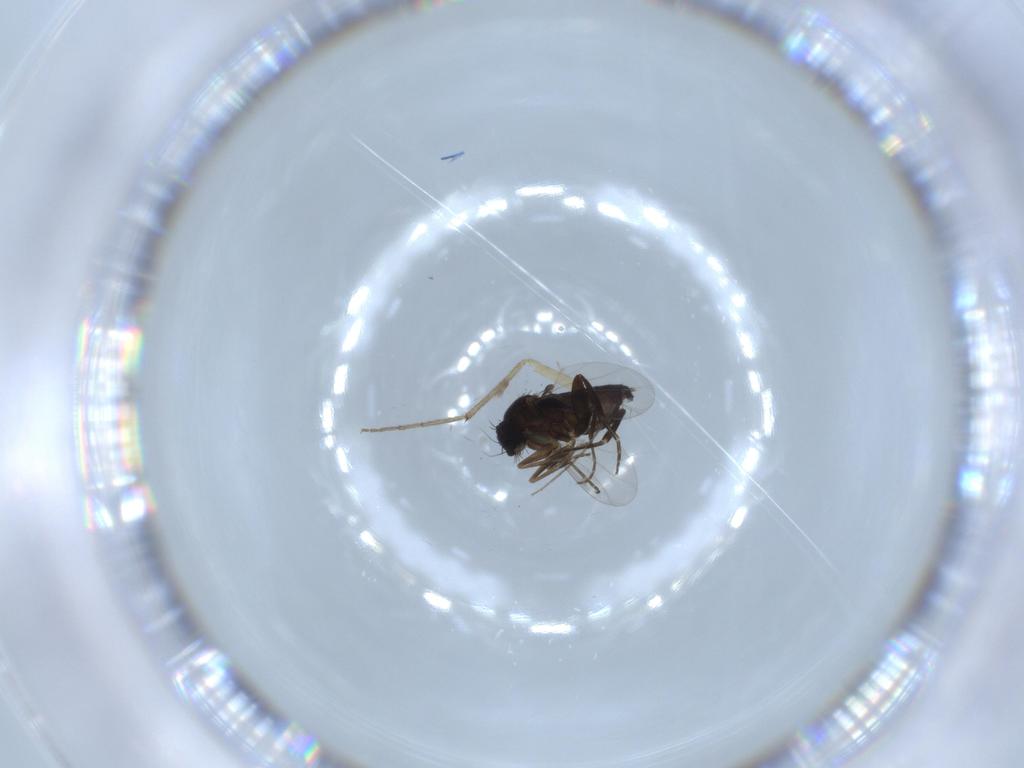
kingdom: Animalia
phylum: Arthropoda
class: Insecta
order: Diptera
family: Phoridae
